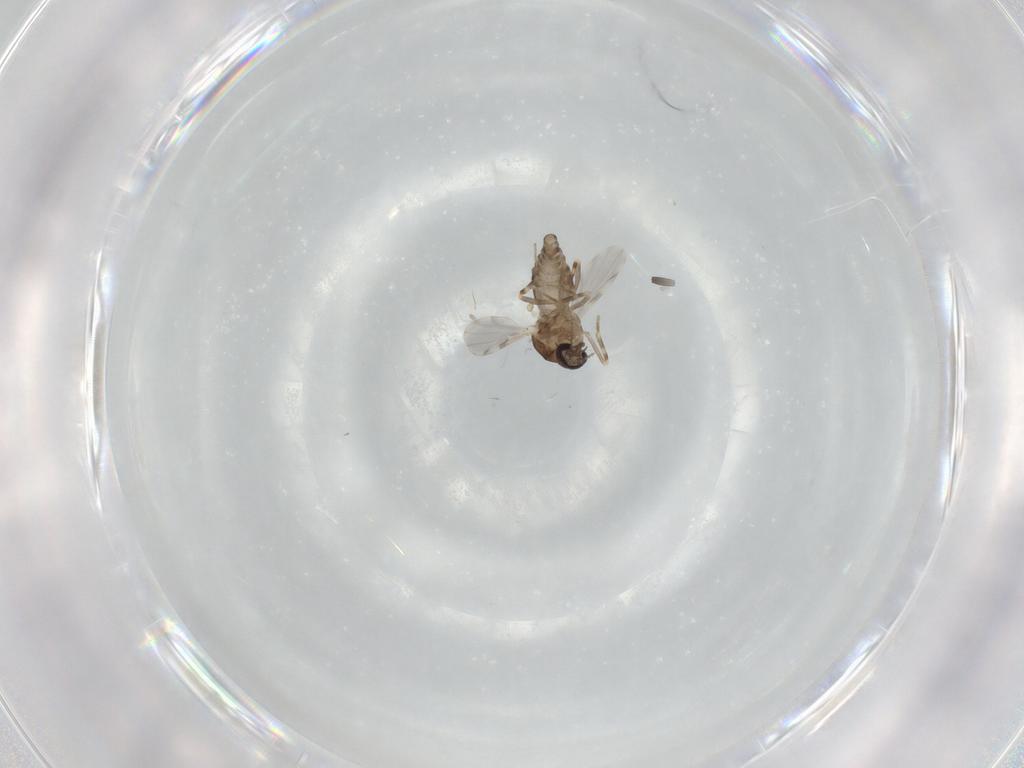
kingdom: Animalia
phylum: Arthropoda
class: Insecta
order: Diptera
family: Ceratopogonidae
